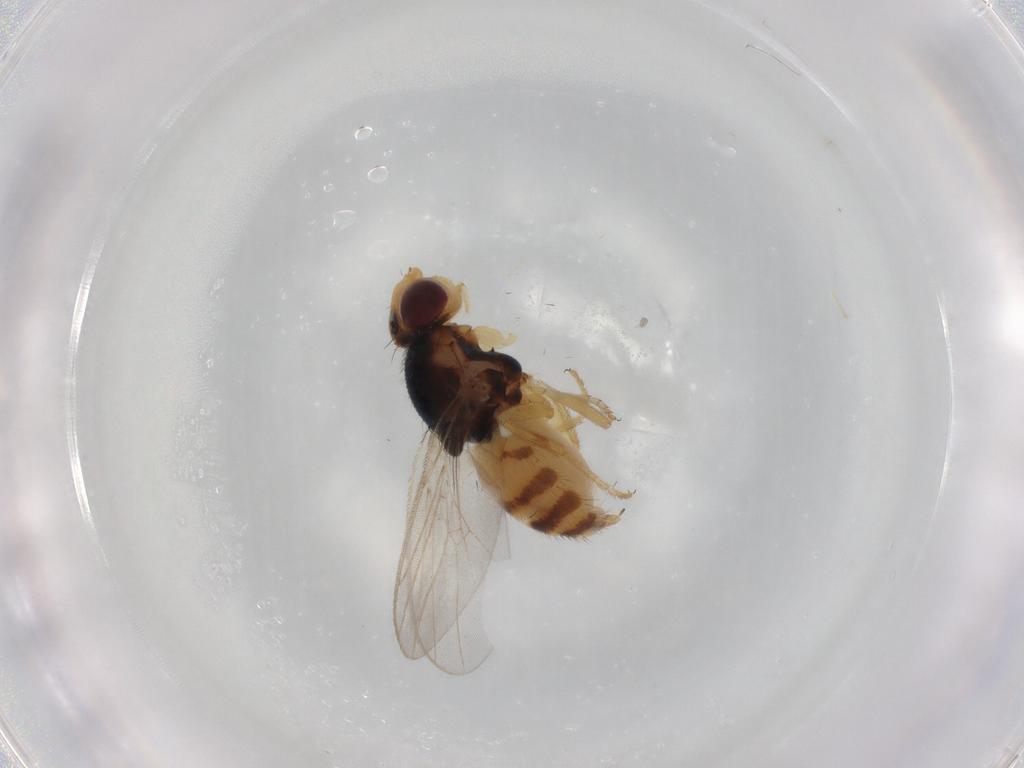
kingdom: Animalia
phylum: Arthropoda
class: Insecta
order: Diptera
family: Chloropidae
